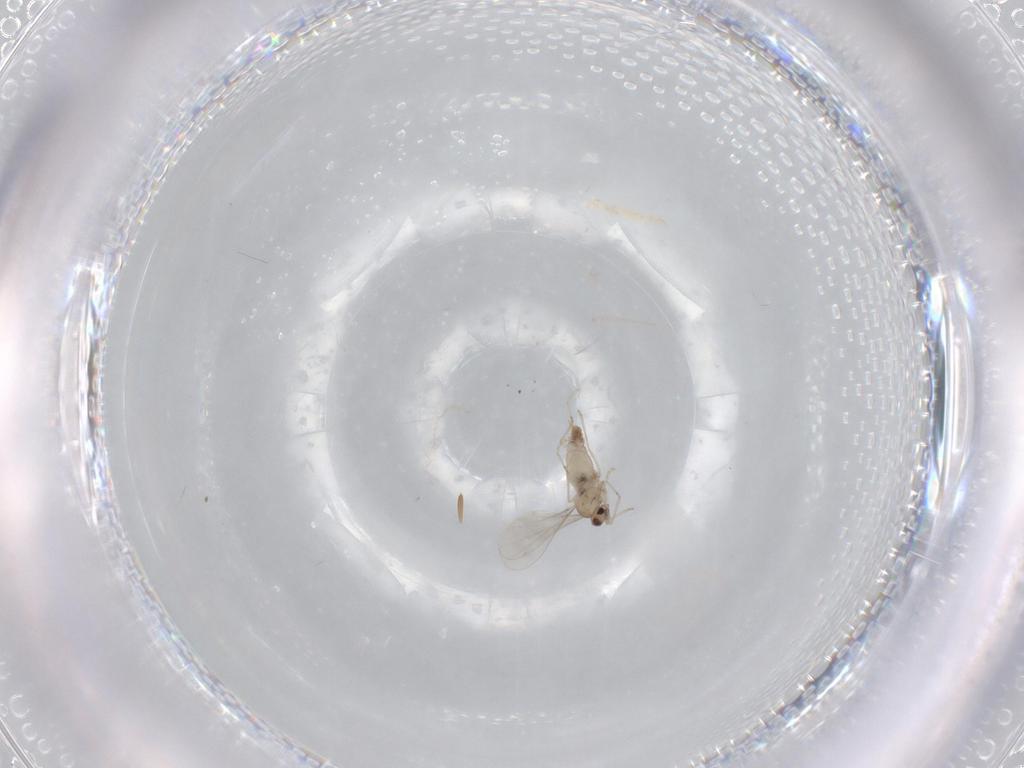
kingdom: Animalia
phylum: Arthropoda
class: Insecta
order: Diptera
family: Cecidomyiidae
